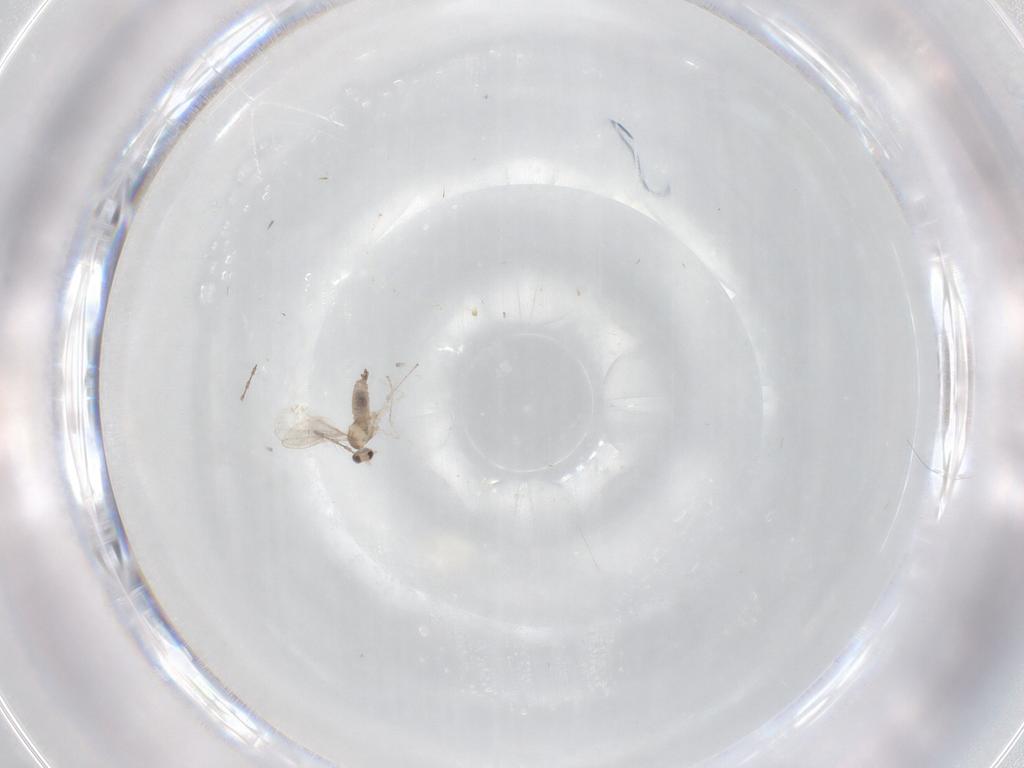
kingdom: Animalia
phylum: Arthropoda
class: Insecta
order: Diptera
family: Cecidomyiidae
